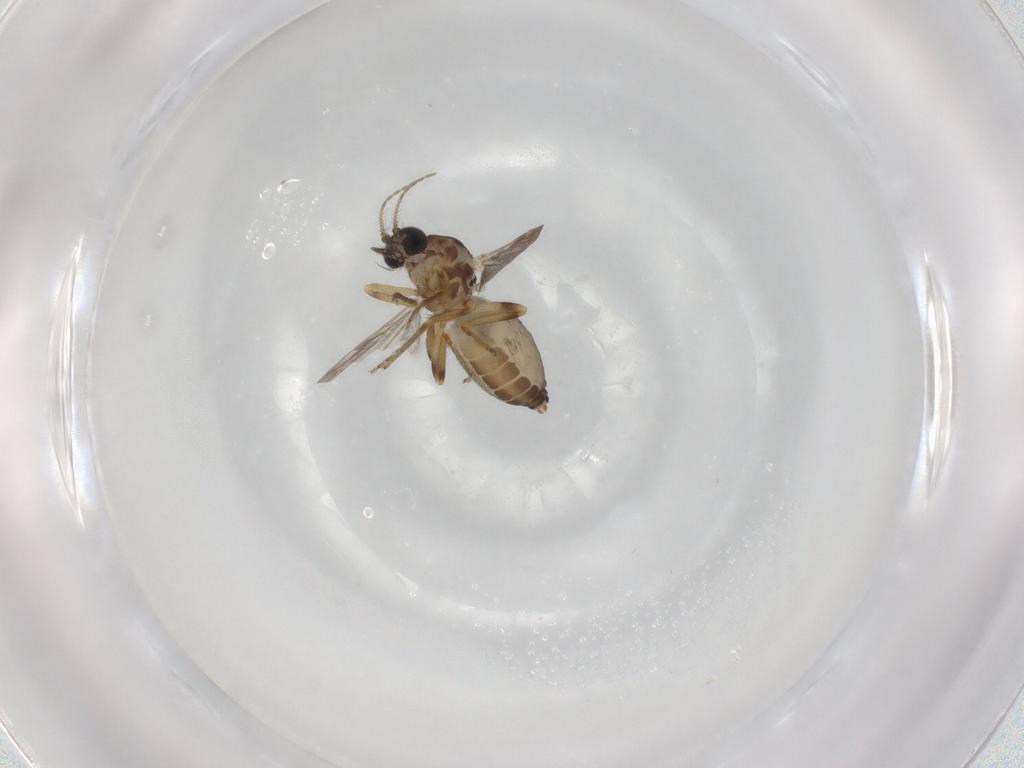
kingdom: Animalia
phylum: Arthropoda
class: Insecta
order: Diptera
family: Ceratopogonidae
